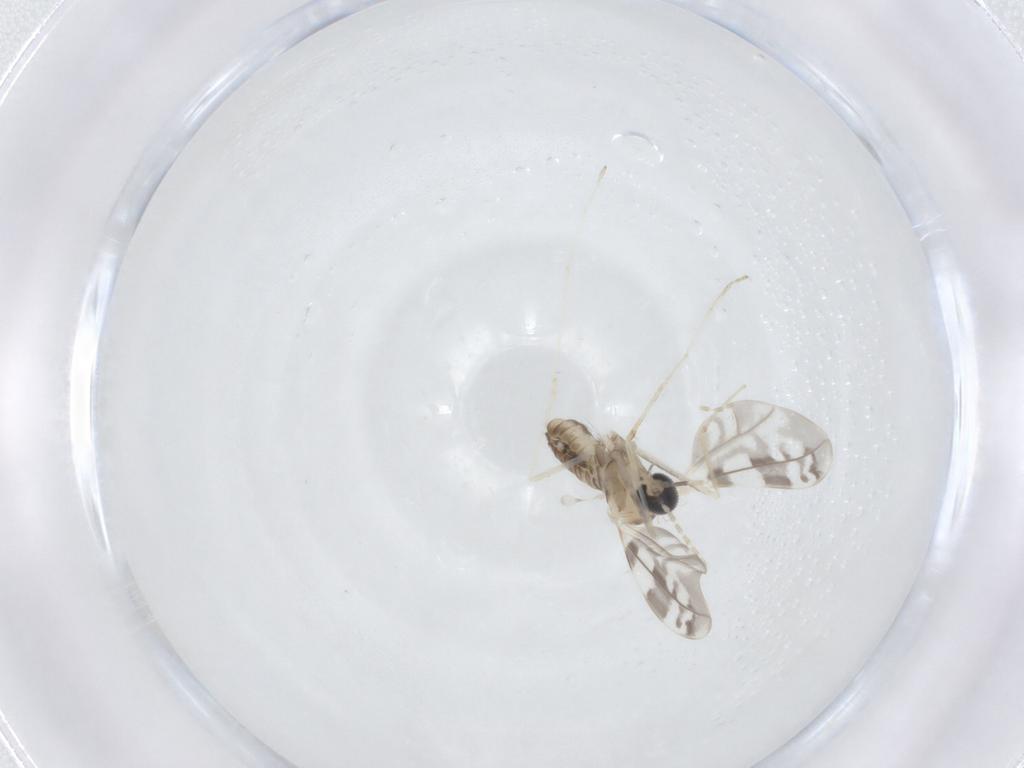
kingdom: Animalia
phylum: Arthropoda
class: Insecta
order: Diptera
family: Cecidomyiidae
